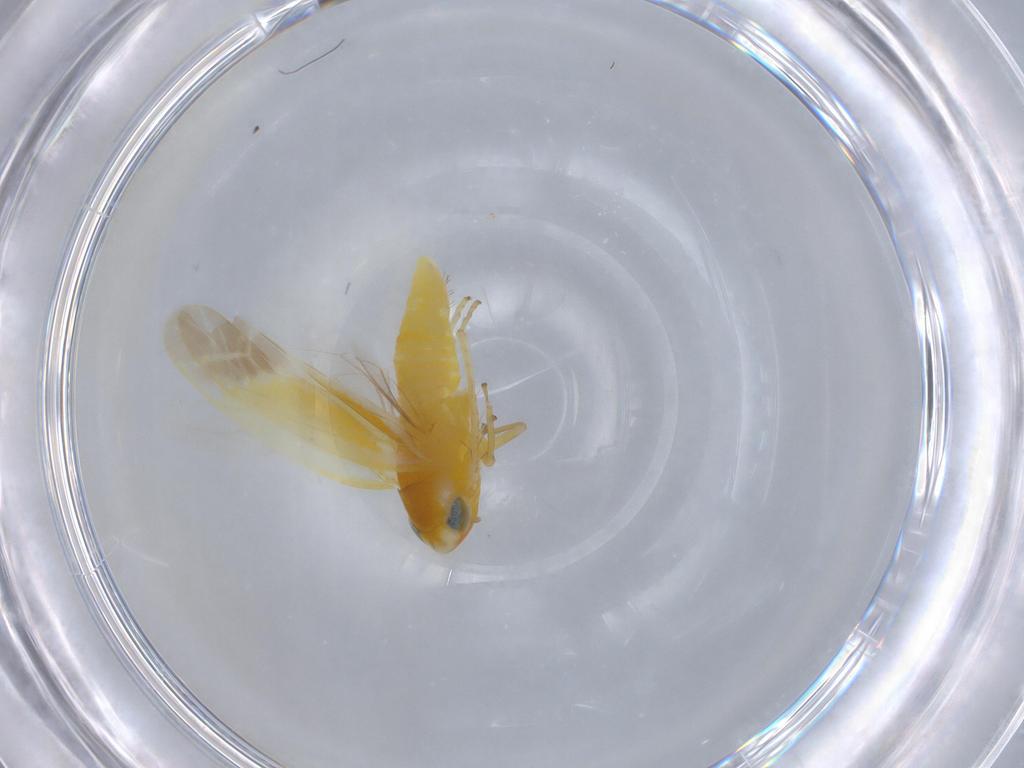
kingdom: Animalia
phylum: Arthropoda
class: Insecta
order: Hemiptera
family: Cicadellidae
